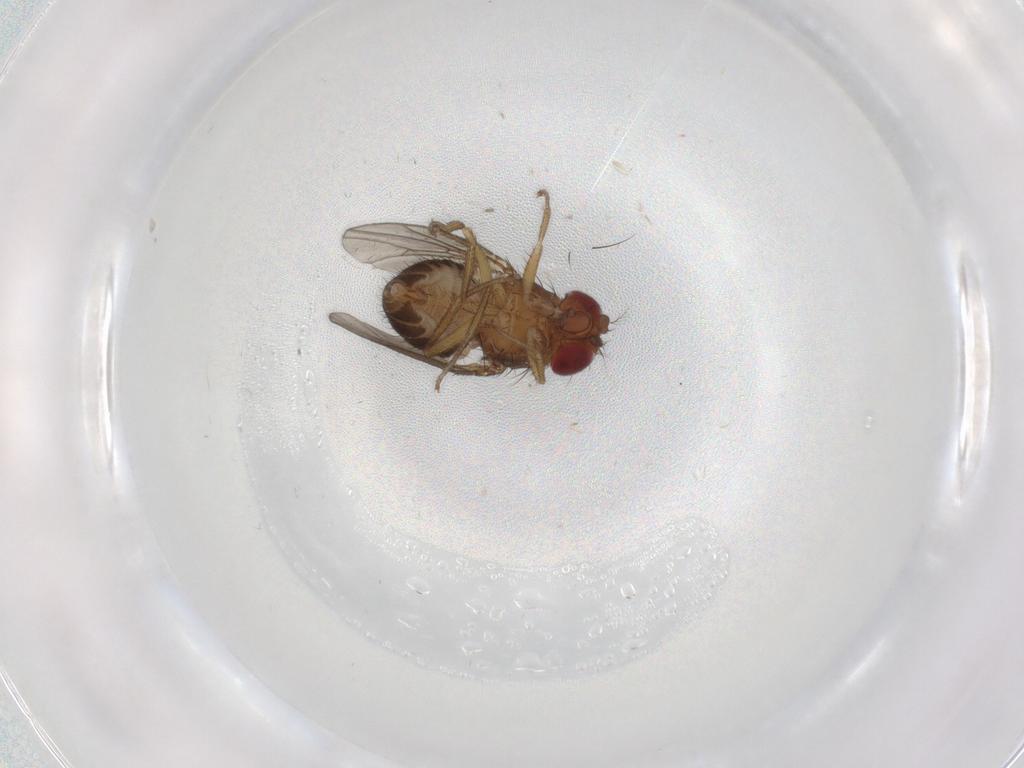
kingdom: Animalia
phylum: Arthropoda
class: Insecta
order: Diptera
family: Drosophilidae
